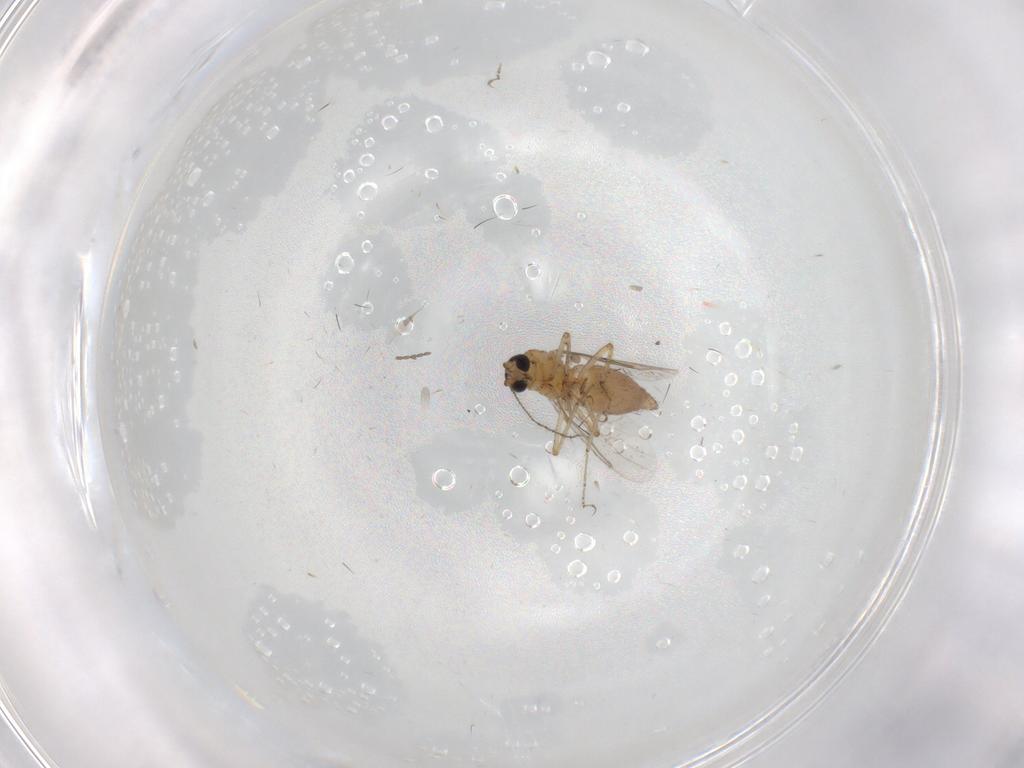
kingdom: Animalia
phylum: Arthropoda
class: Insecta
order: Diptera
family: Ceratopogonidae
